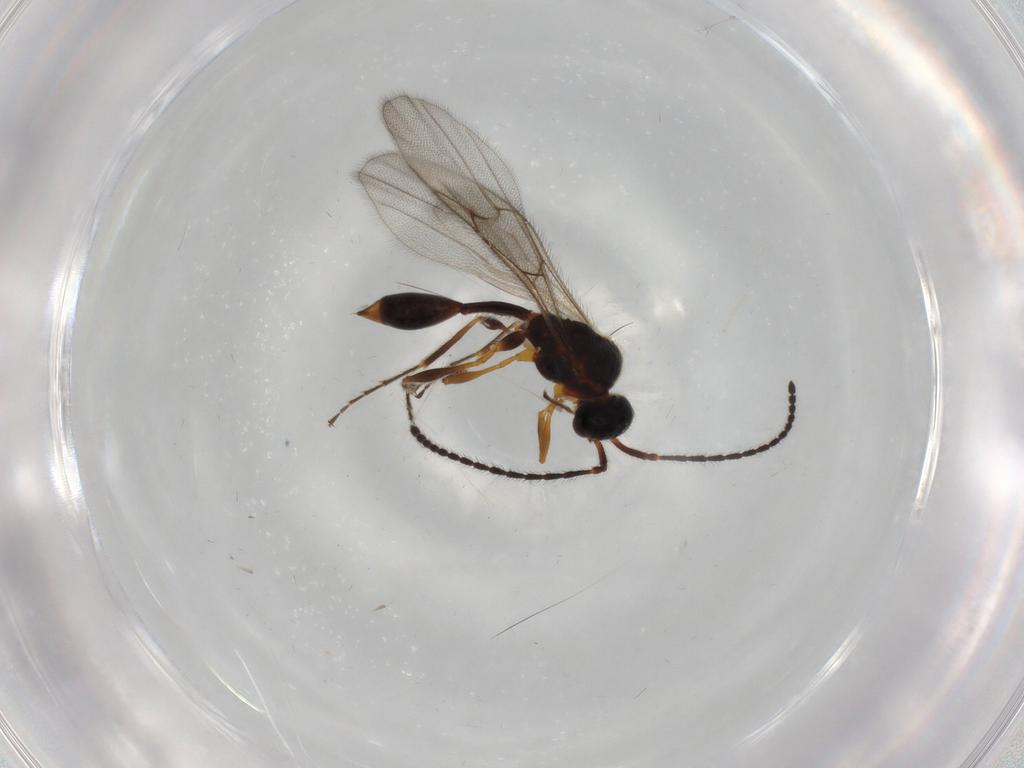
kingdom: Animalia
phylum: Arthropoda
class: Insecta
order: Hymenoptera
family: Diapriidae
